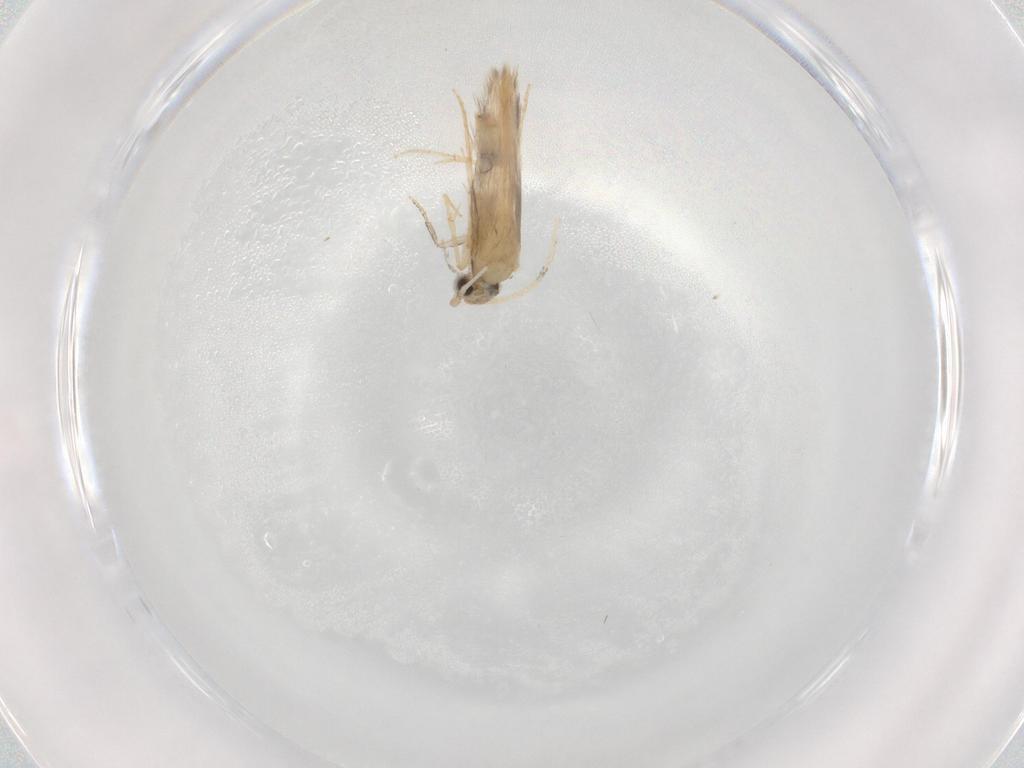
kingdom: Animalia
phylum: Arthropoda
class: Insecta
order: Trichoptera
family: Hydroptilidae
